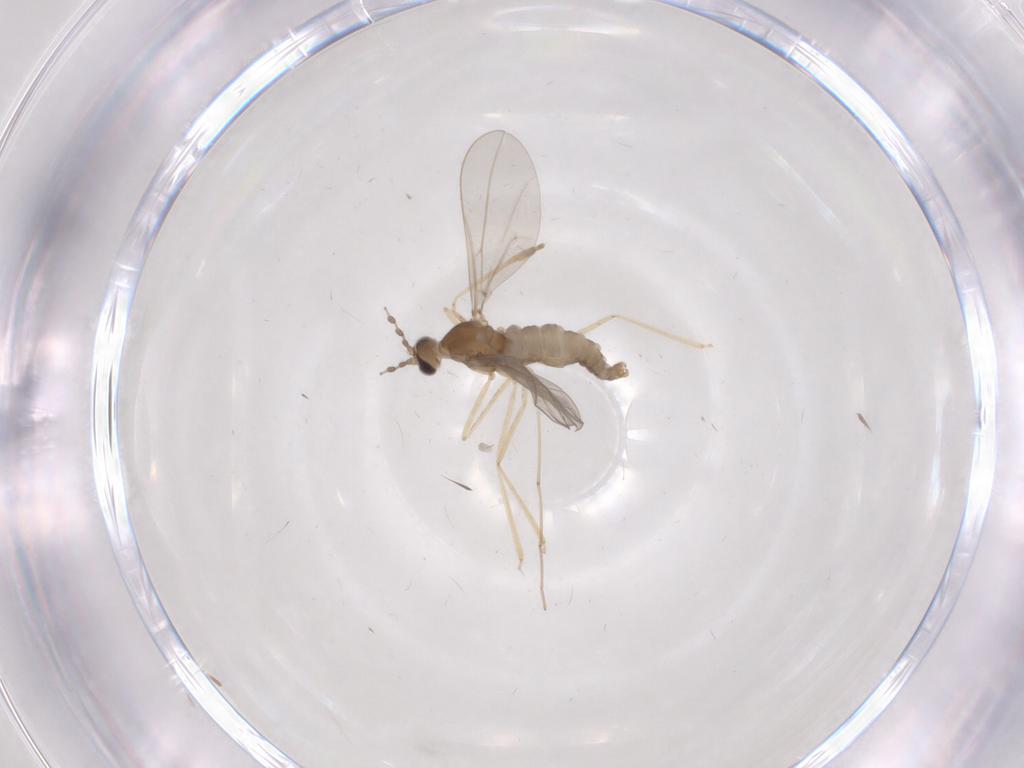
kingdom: Animalia
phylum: Arthropoda
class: Insecta
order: Diptera
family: Cecidomyiidae
